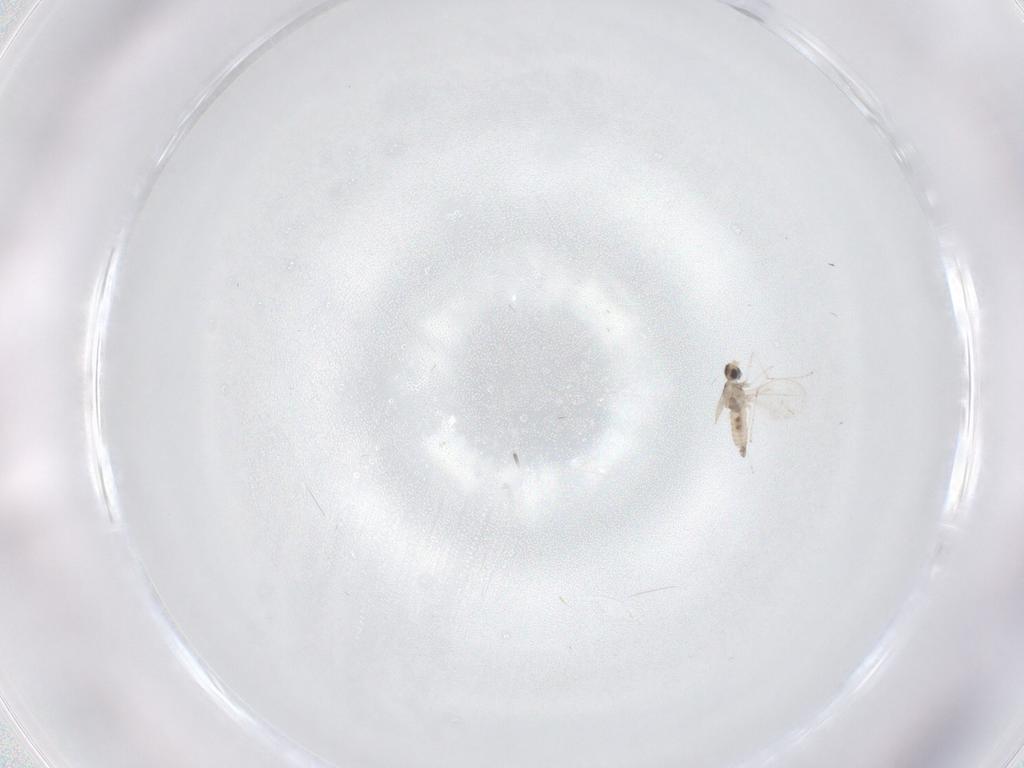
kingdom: Animalia
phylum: Arthropoda
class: Insecta
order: Diptera
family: Cecidomyiidae
